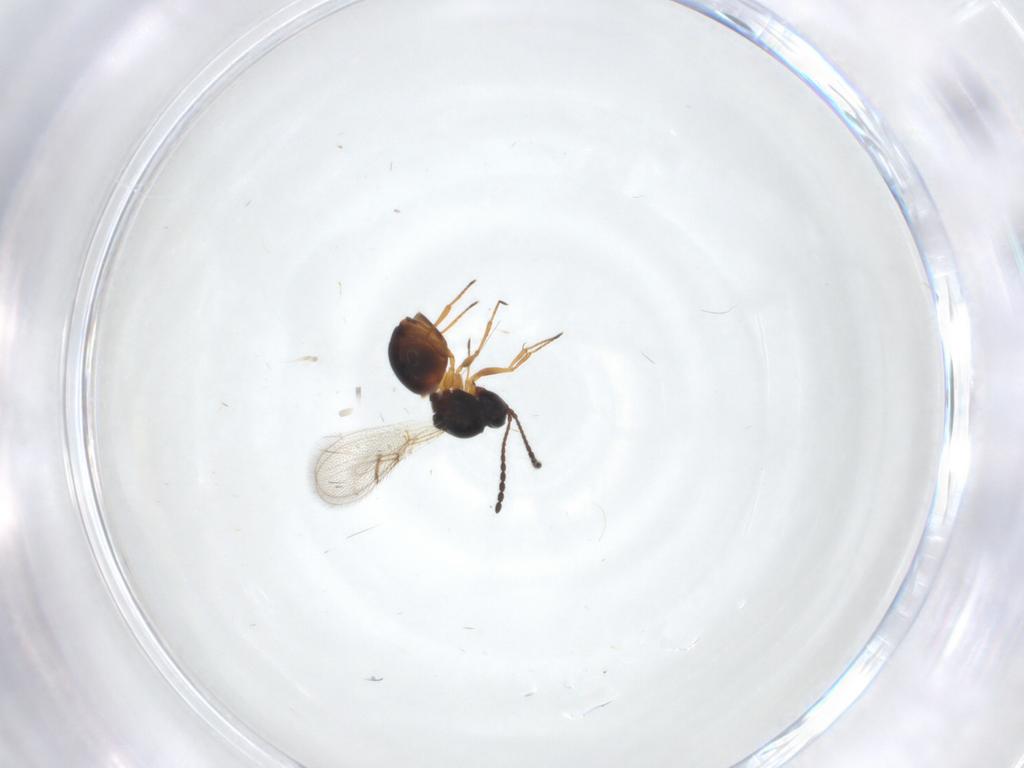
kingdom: Animalia
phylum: Arthropoda
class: Insecta
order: Hymenoptera
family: Figitidae
